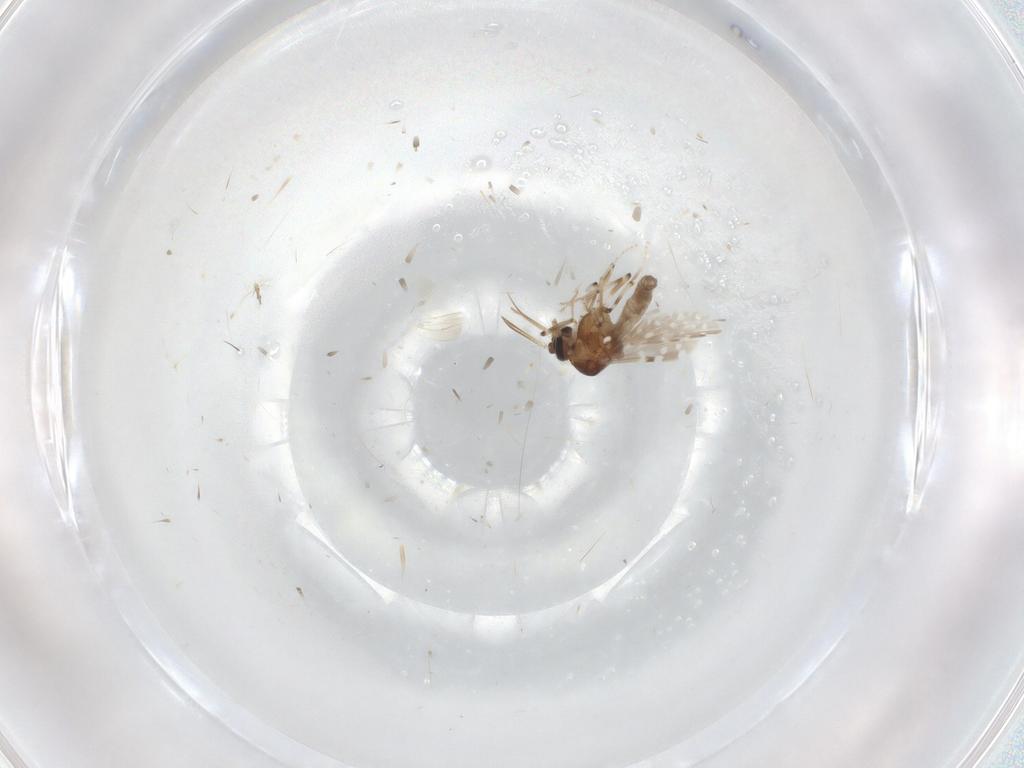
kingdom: Animalia
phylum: Arthropoda
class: Insecta
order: Diptera
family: Ceratopogonidae
